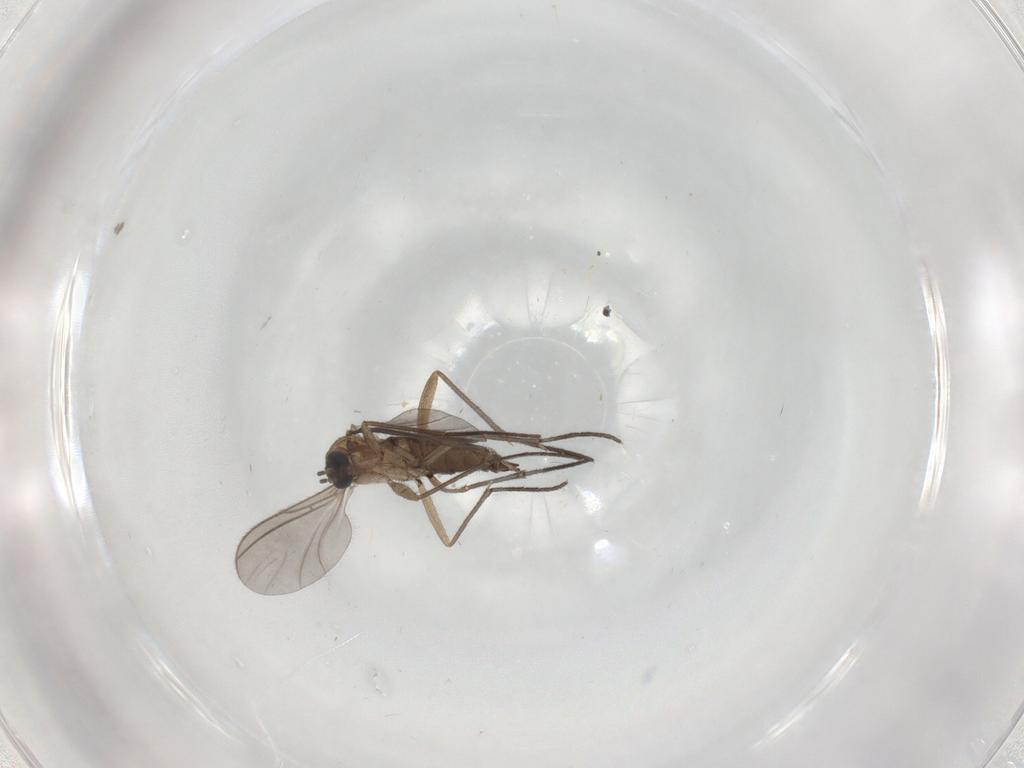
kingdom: Animalia
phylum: Arthropoda
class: Insecta
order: Diptera
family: Sciaridae
